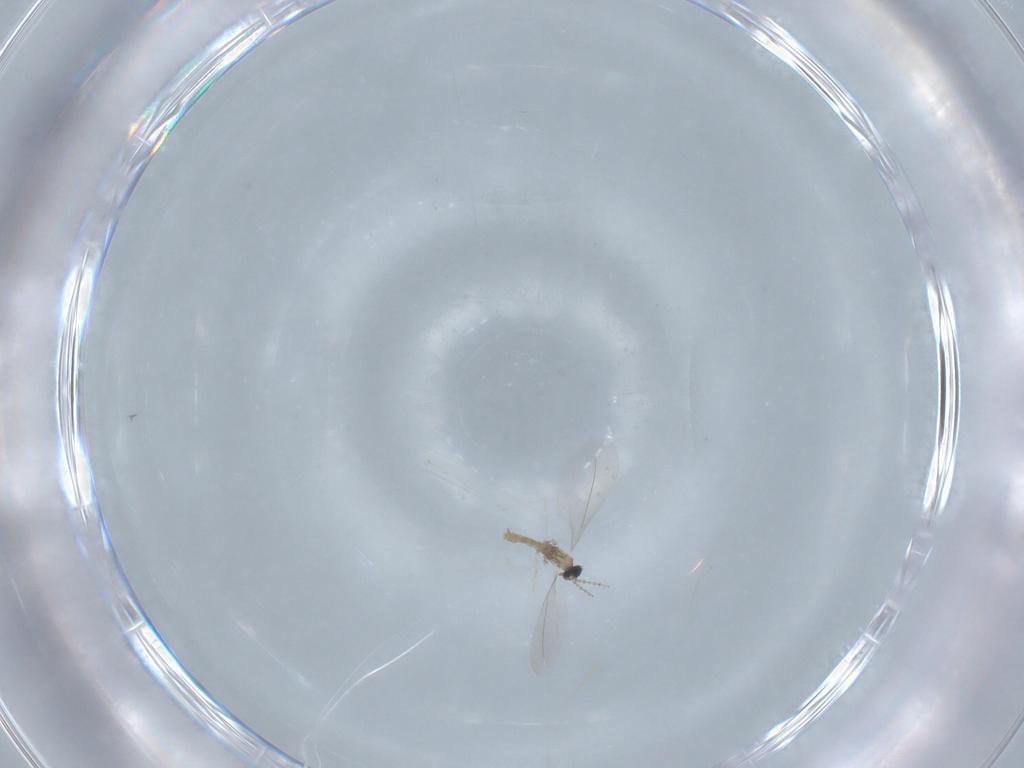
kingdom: Animalia
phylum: Arthropoda
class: Insecta
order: Diptera
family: Cecidomyiidae
